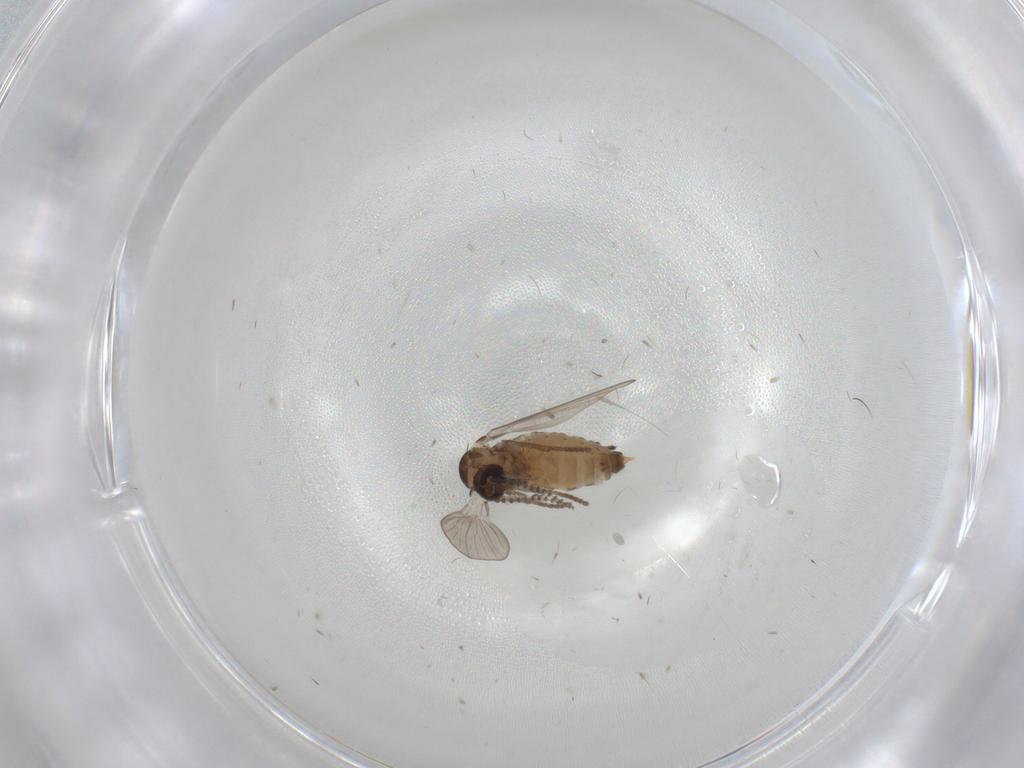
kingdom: Animalia
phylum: Arthropoda
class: Insecta
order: Diptera
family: Psychodidae
